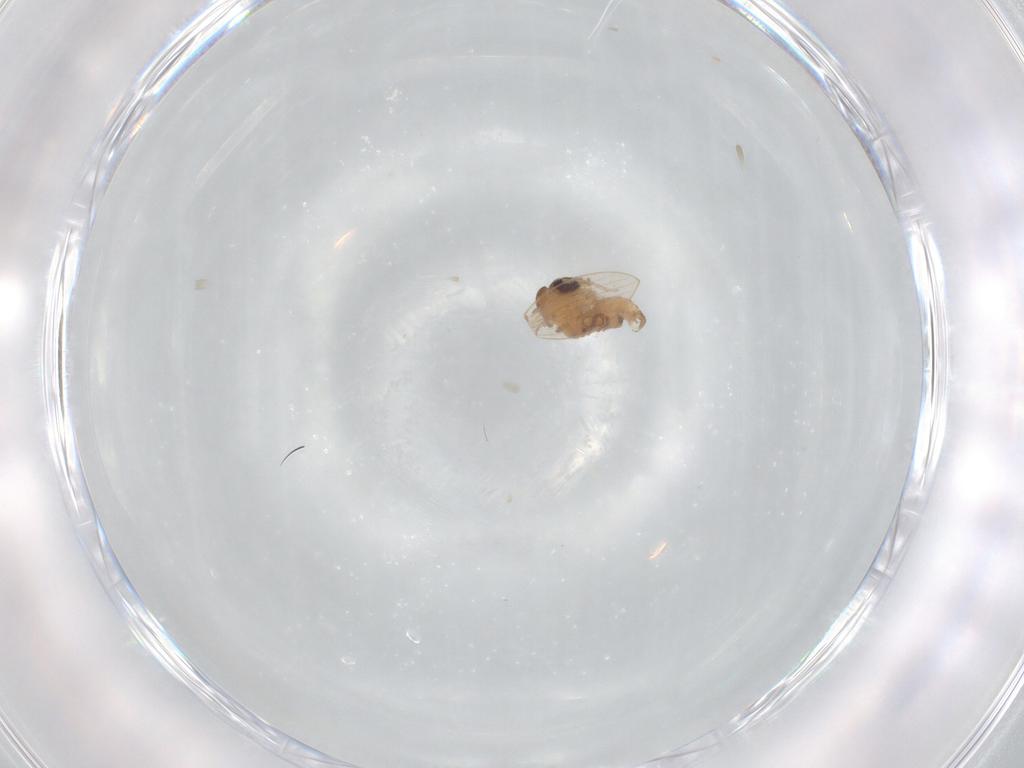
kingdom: Animalia
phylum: Arthropoda
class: Insecta
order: Diptera
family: Psychodidae
